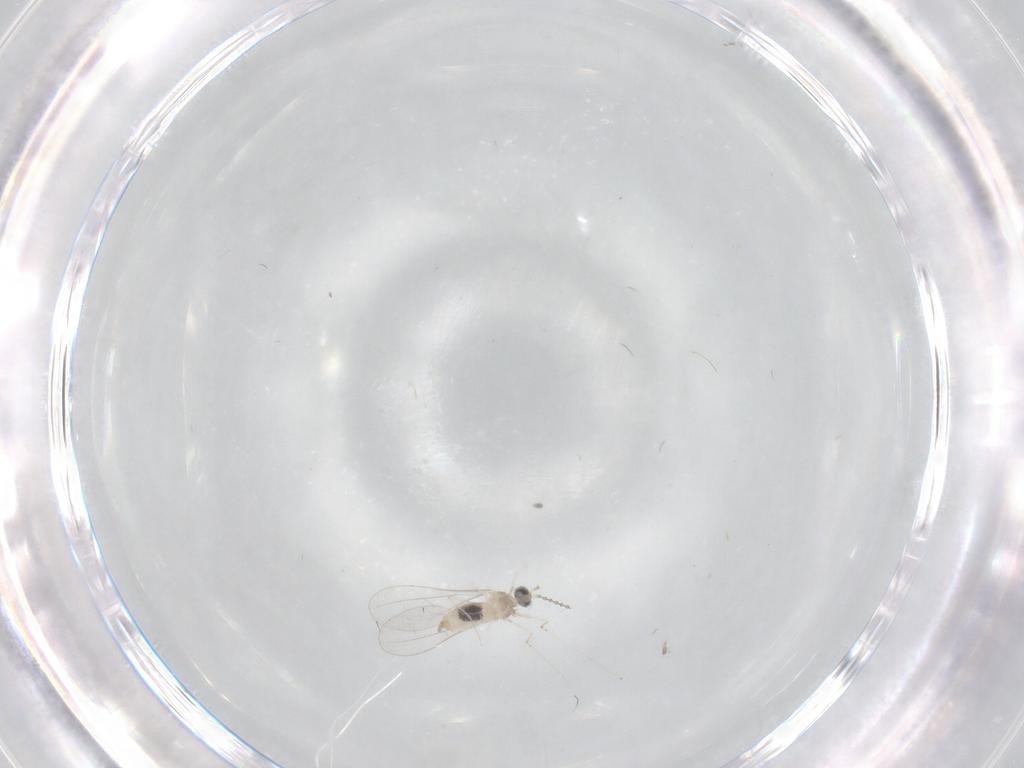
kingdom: Animalia
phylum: Arthropoda
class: Insecta
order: Diptera
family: Cecidomyiidae
